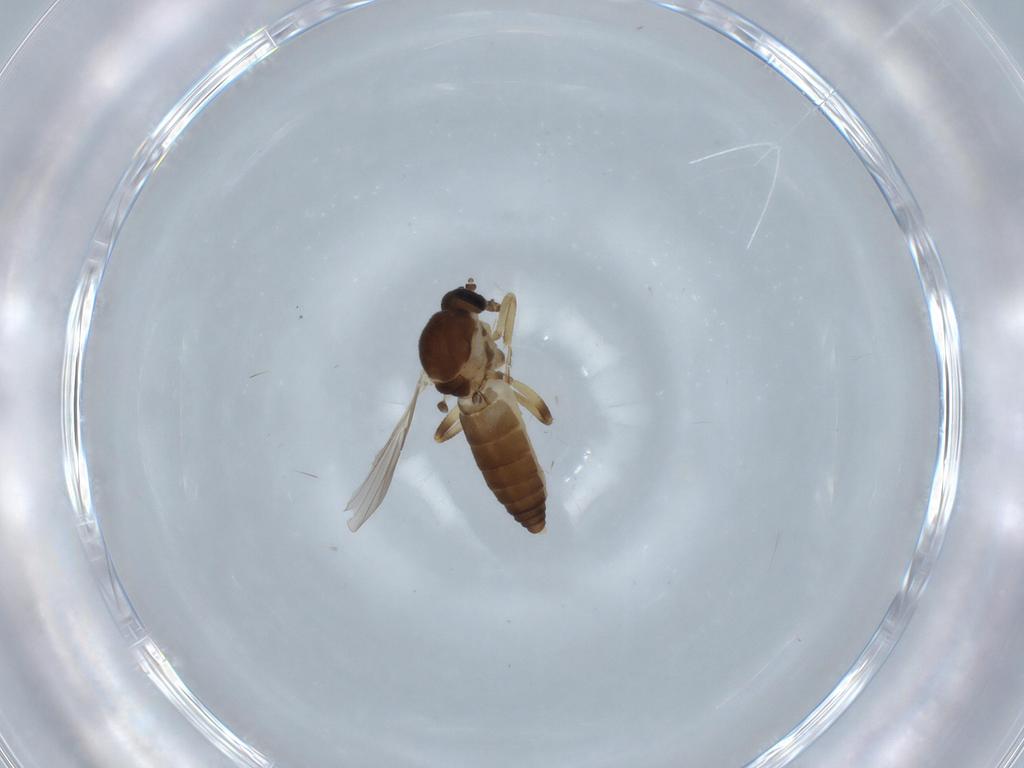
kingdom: Animalia
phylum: Arthropoda
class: Insecta
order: Diptera
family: Ceratopogonidae
